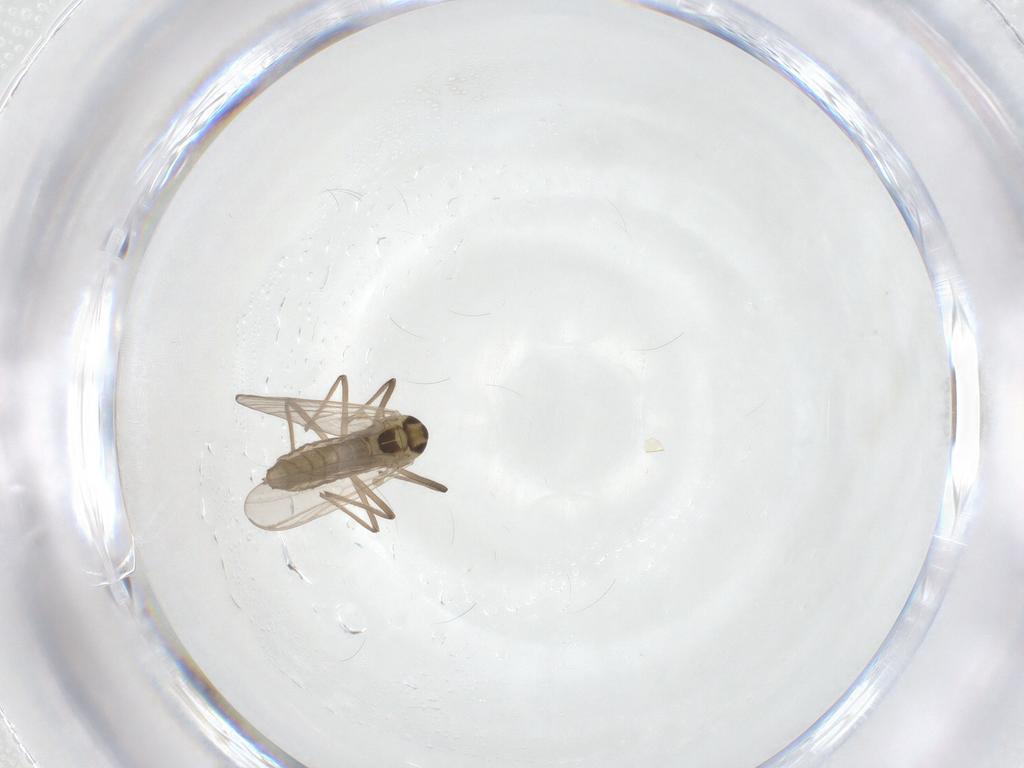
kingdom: Animalia
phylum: Arthropoda
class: Insecta
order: Diptera
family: Chironomidae
